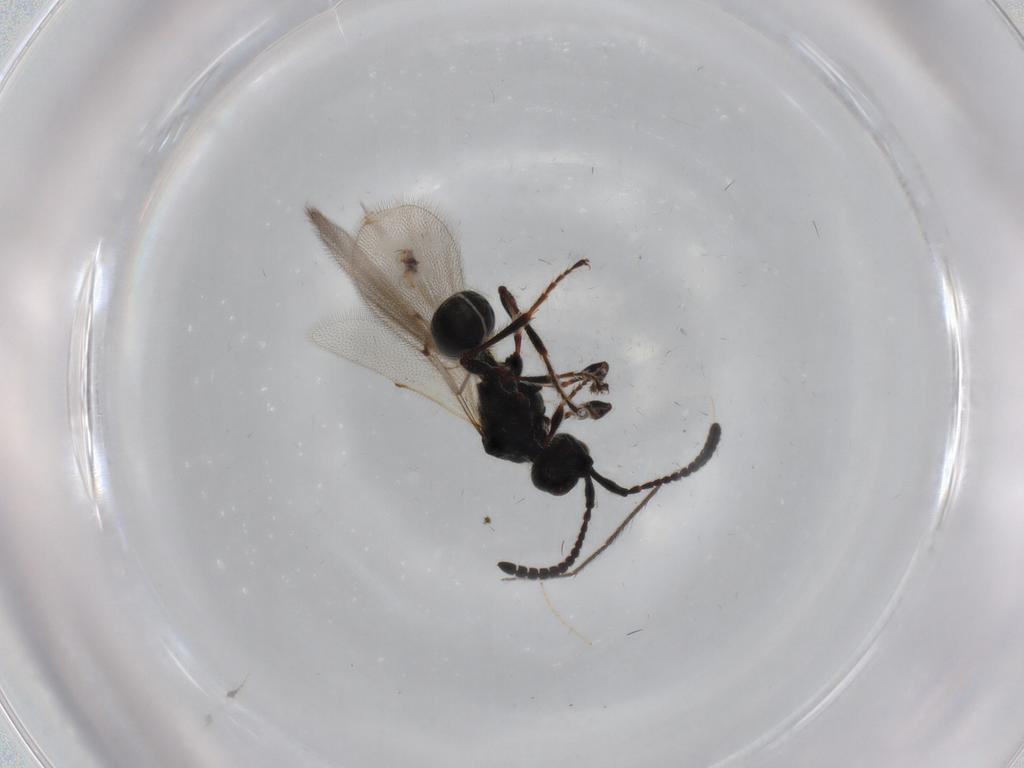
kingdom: Animalia
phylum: Arthropoda
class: Insecta
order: Hymenoptera
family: Diapriidae
